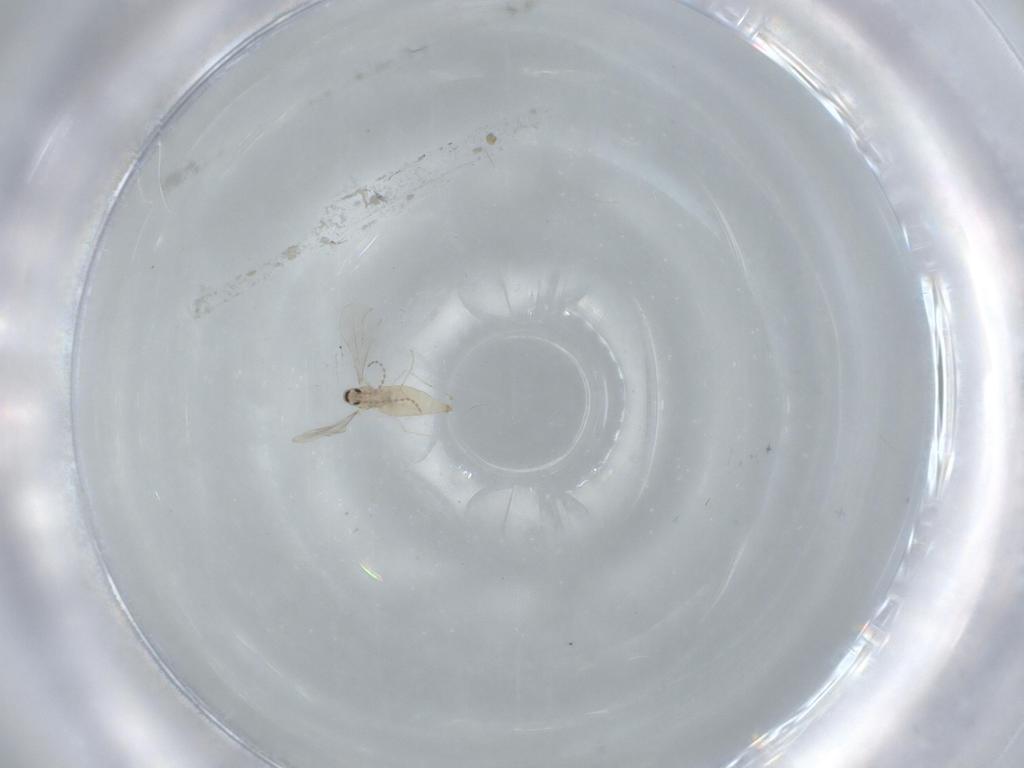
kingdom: Animalia
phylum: Arthropoda
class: Insecta
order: Diptera
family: Cecidomyiidae
